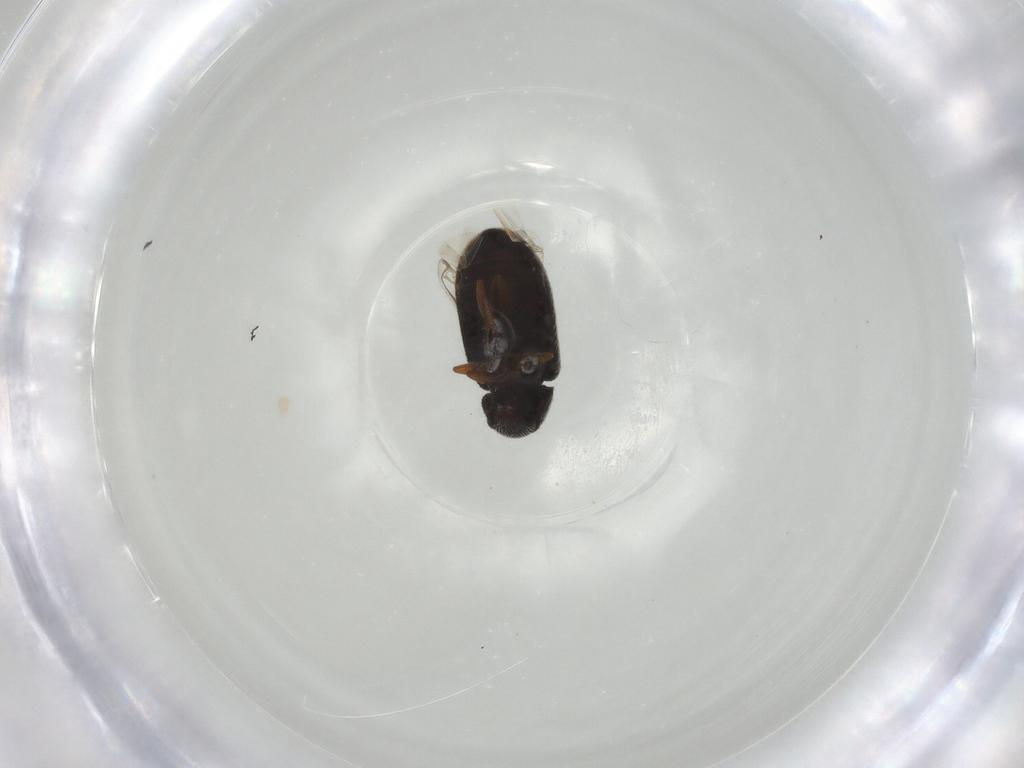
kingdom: Animalia
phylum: Arthropoda
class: Insecta
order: Coleoptera
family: Rhadalidae
